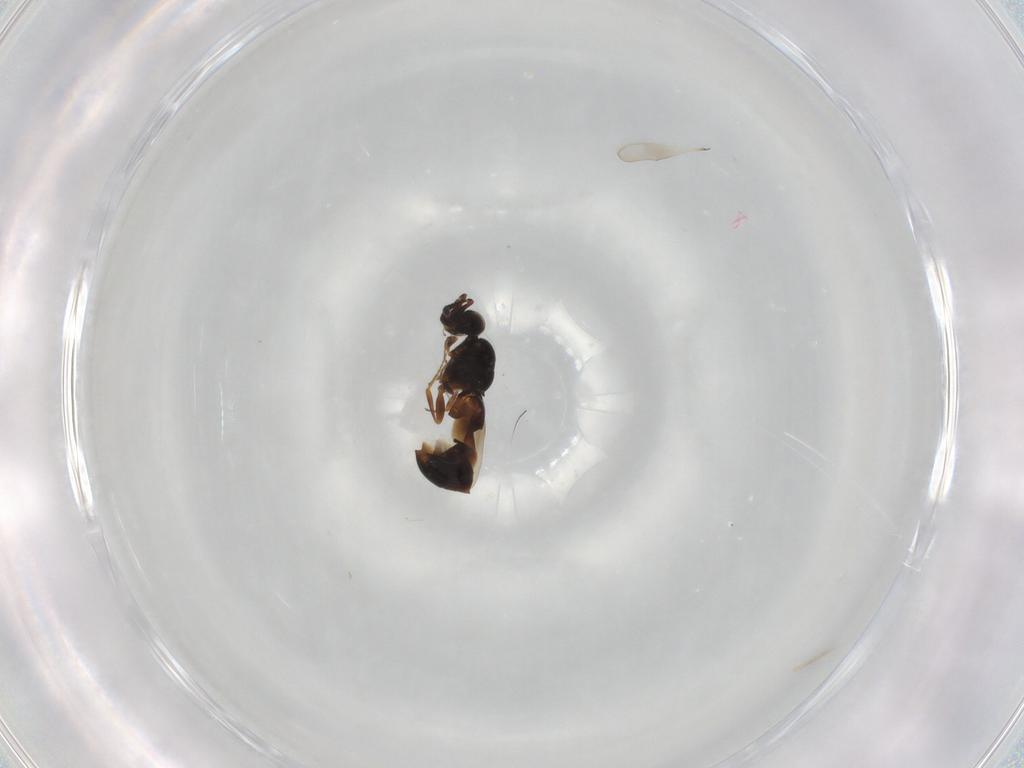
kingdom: Animalia
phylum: Arthropoda
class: Insecta
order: Hymenoptera
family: Ceraphronidae
